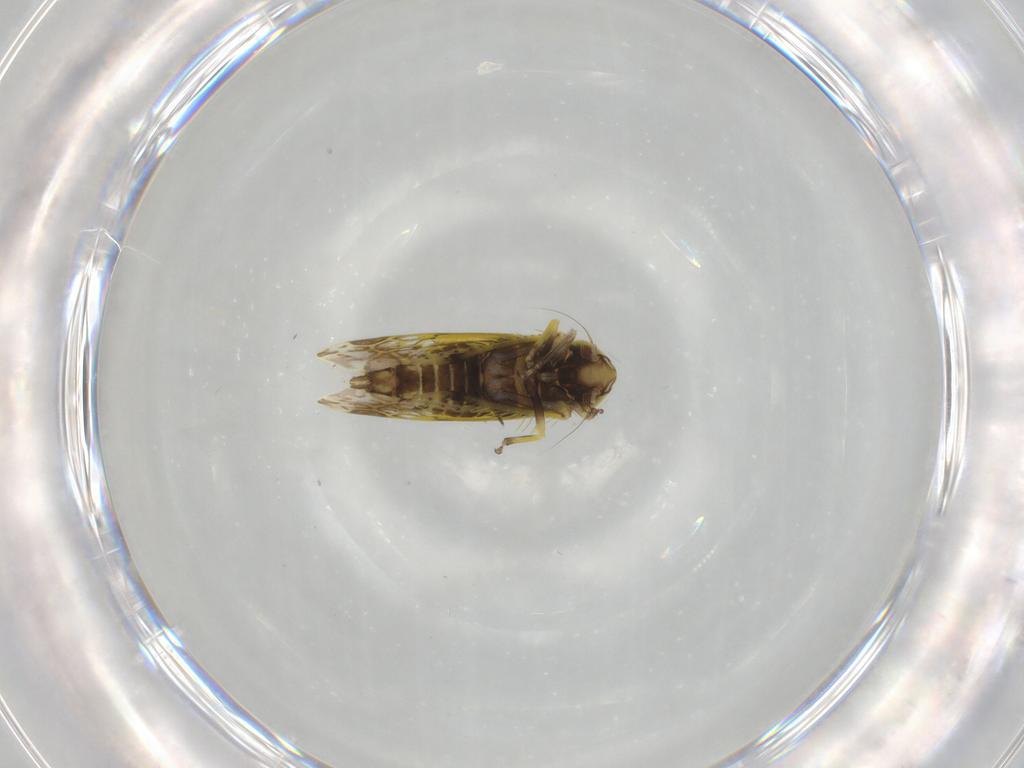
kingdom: Animalia
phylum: Arthropoda
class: Insecta
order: Hemiptera
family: Cicadellidae
